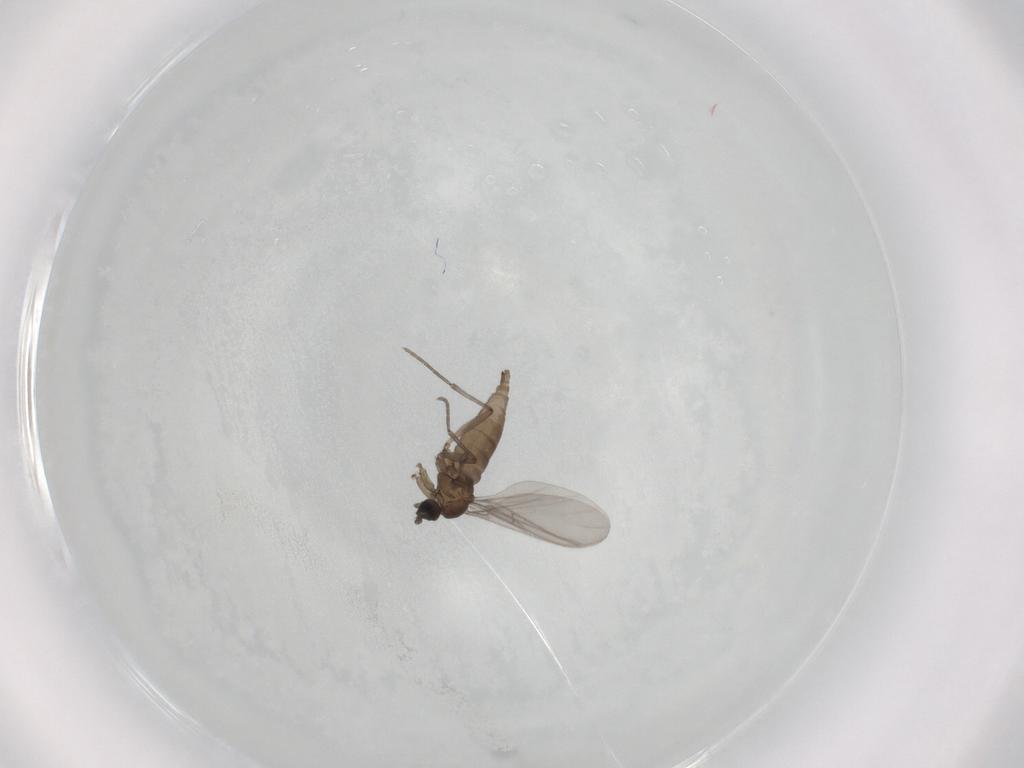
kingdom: Animalia
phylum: Arthropoda
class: Insecta
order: Diptera
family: Sciaridae
